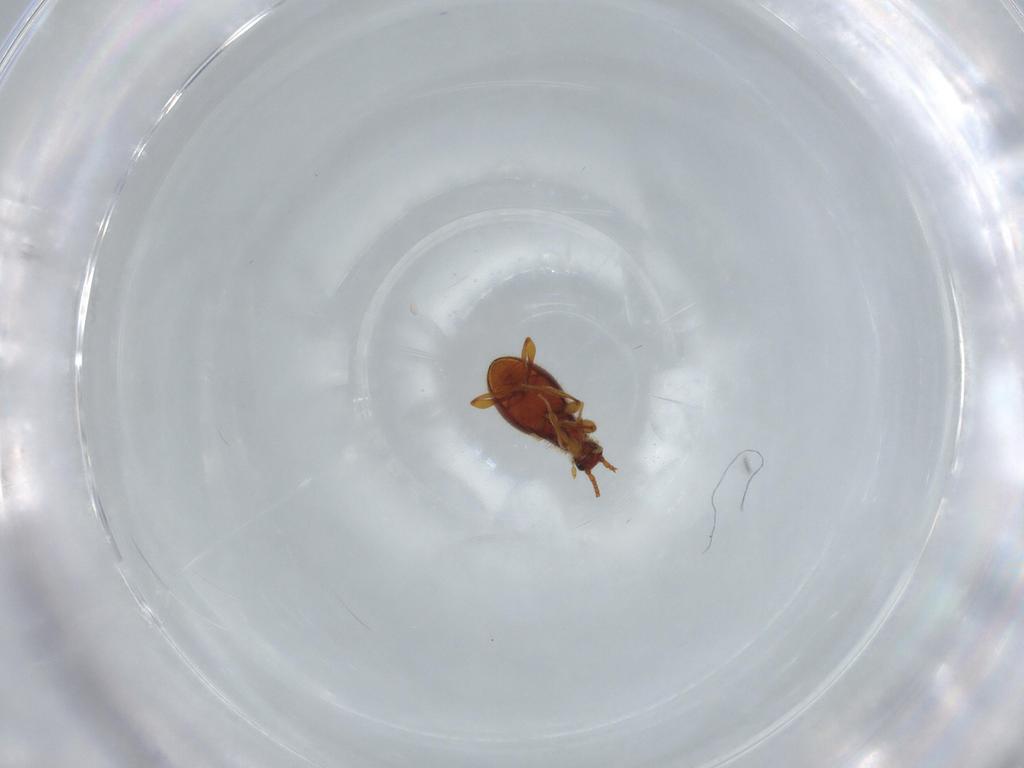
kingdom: Animalia
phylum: Arthropoda
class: Insecta
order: Coleoptera
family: Staphylinidae
